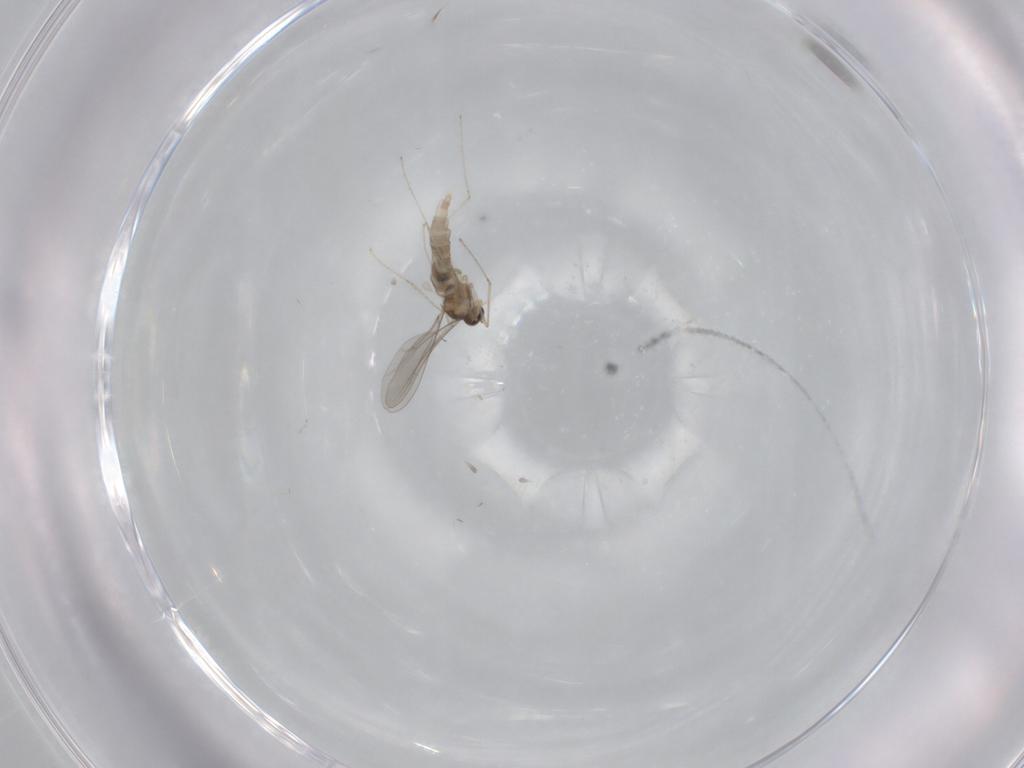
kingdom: Animalia
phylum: Arthropoda
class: Insecta
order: Diptera
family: Phoridae
